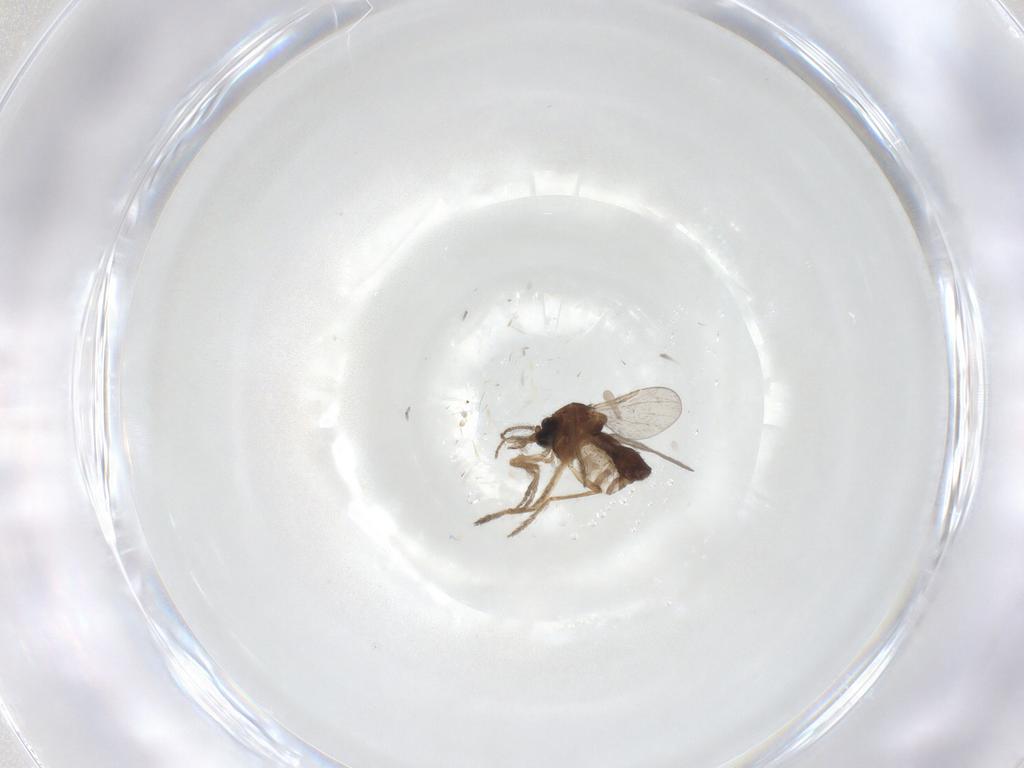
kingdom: Animalia
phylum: Arthropoda
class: Insecta
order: Diptera
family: Ceratopogonidae
